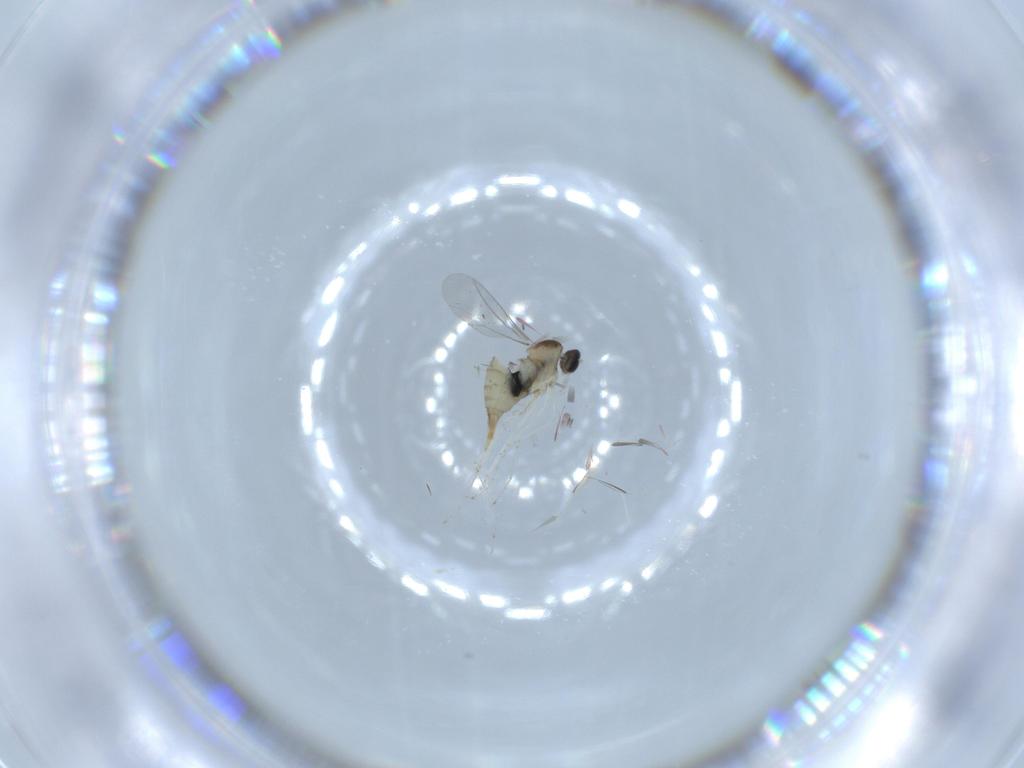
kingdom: Animalia
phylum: Arthropoda
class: Insecta
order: Diptera
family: Cecidomyiidae
